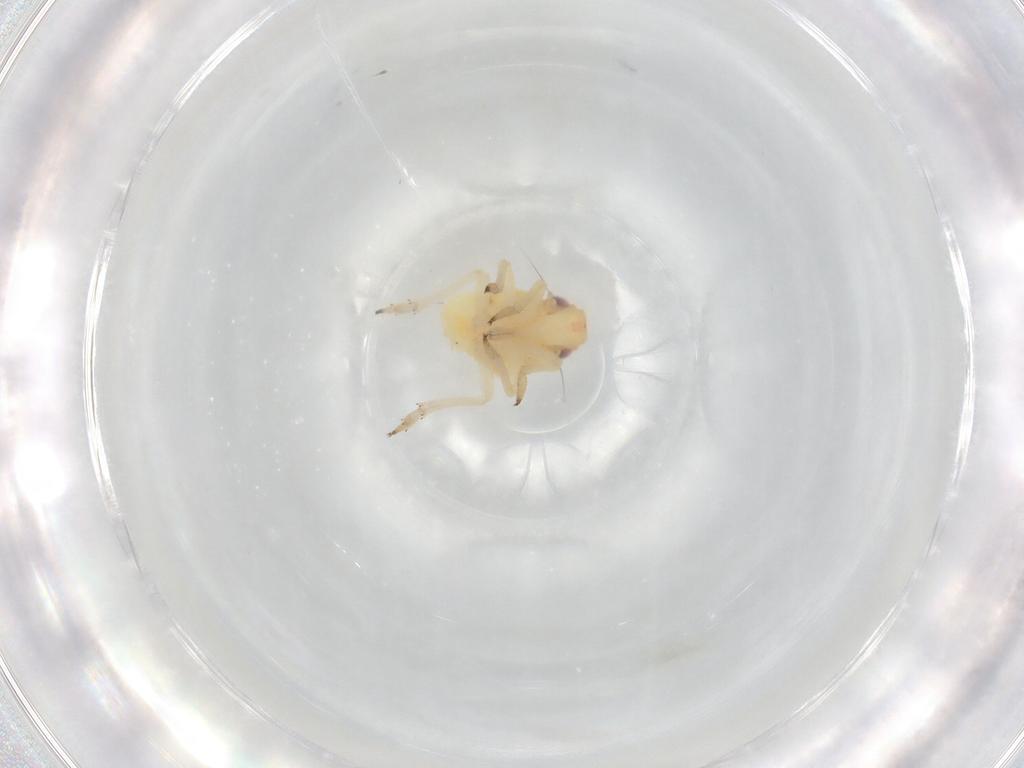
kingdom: Animalia
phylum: Arthropoda
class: Insecta
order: Hemiptera
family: Caliscelidae
